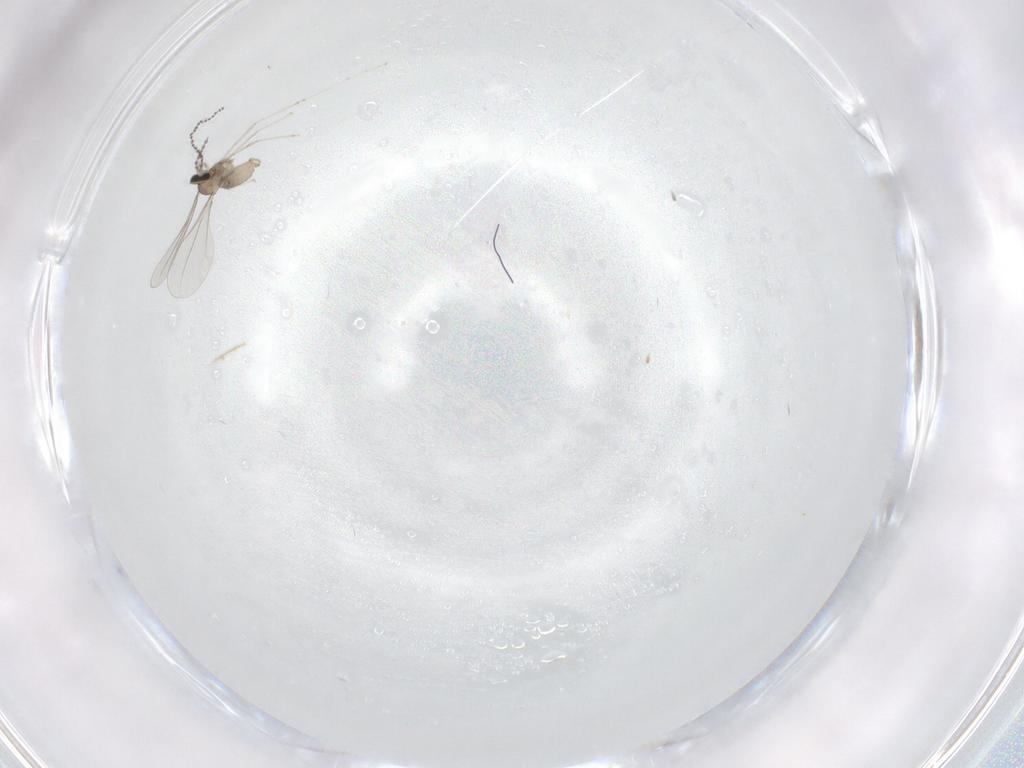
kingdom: Animalia
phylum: Arthropoda
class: Insecta
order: Diptera
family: Cecidomyiidae
